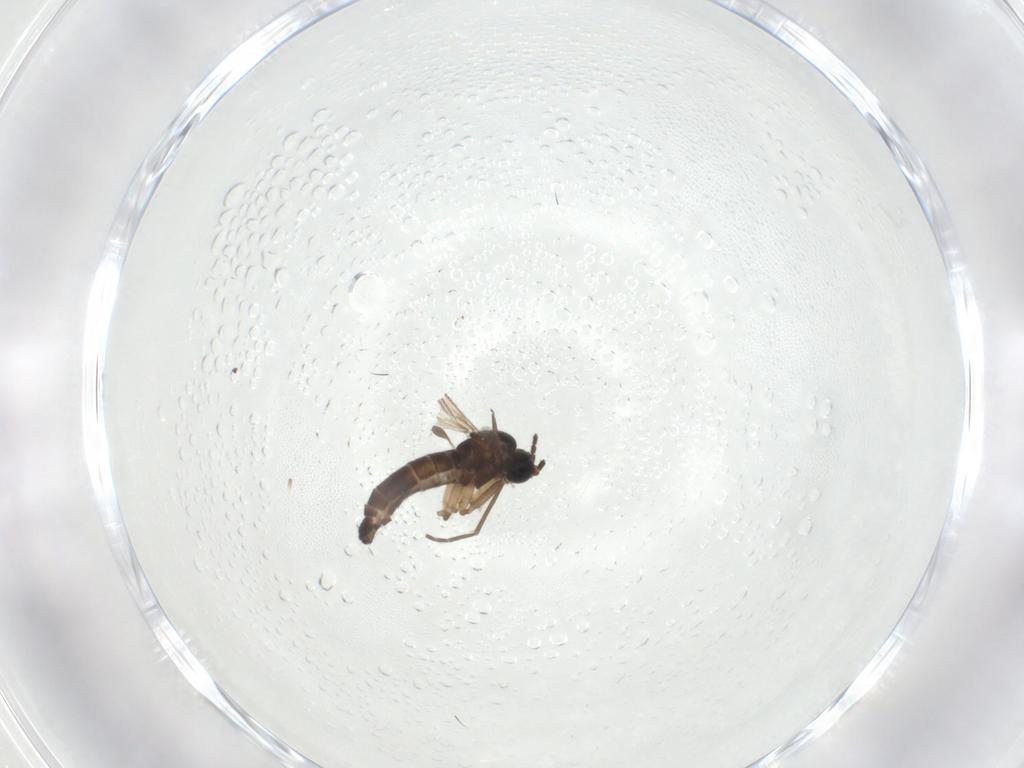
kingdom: Animalia
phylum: Arthropoda
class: Insecta
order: Diptera
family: Sciaridae
